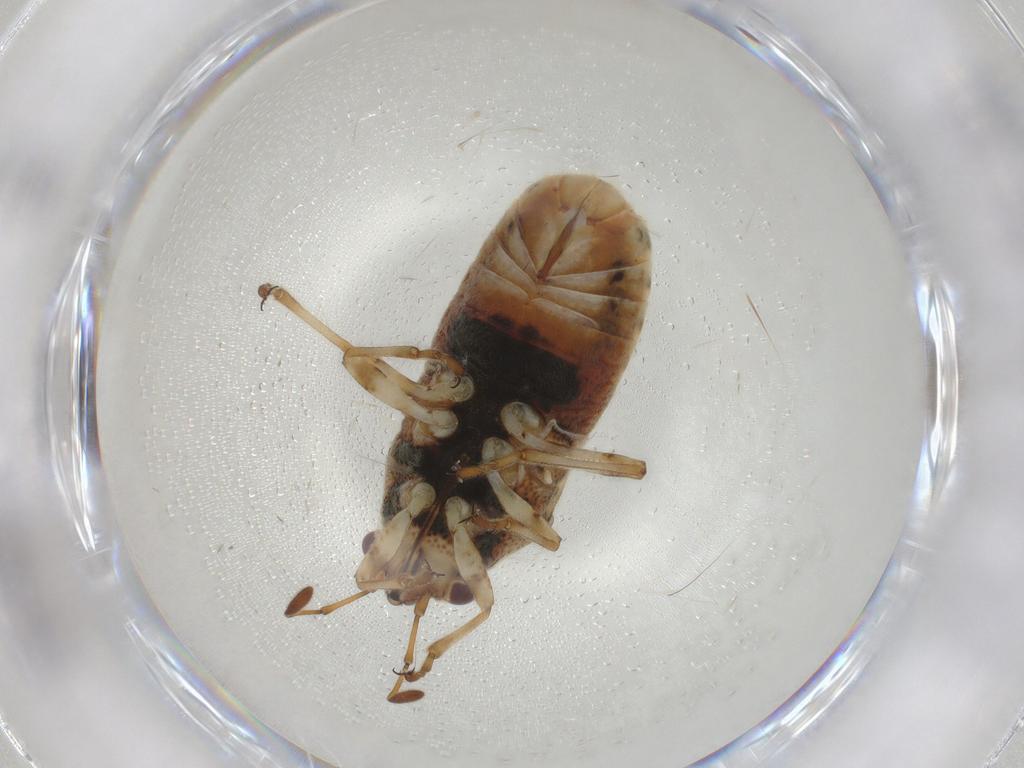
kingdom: Animalia
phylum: Arthropoda
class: Insecta
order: Hemiptera
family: Lygaeidae
